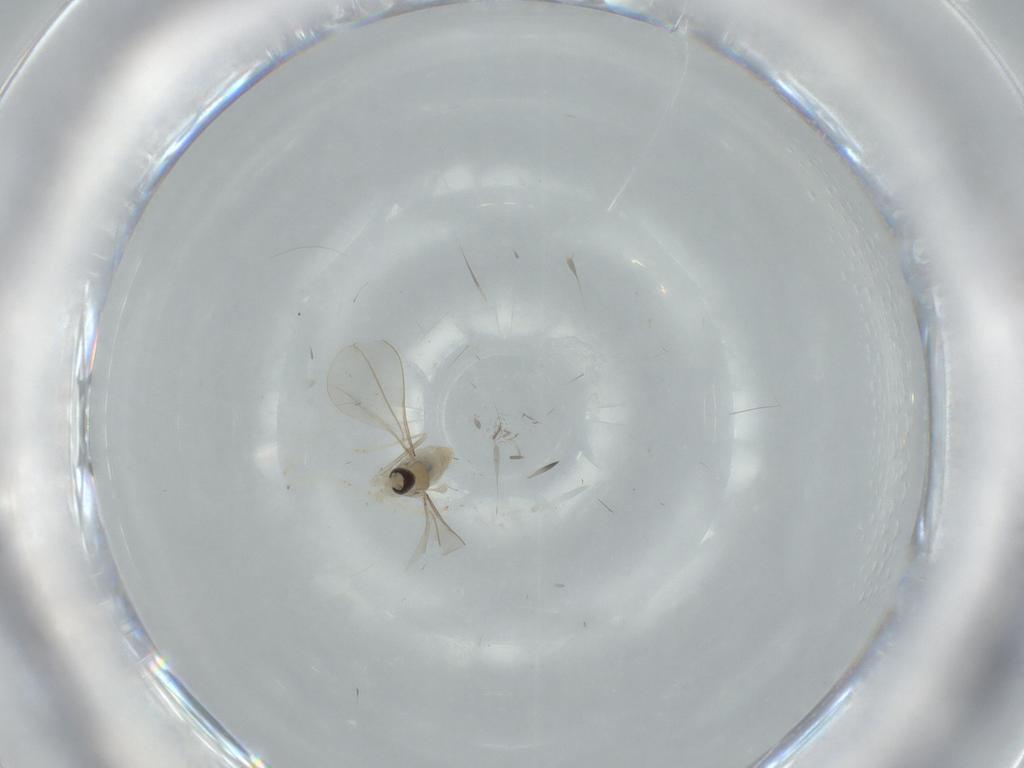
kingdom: Animalia
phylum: Arthropoda
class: Insecta
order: Diptera
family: Cecidomyiidae
